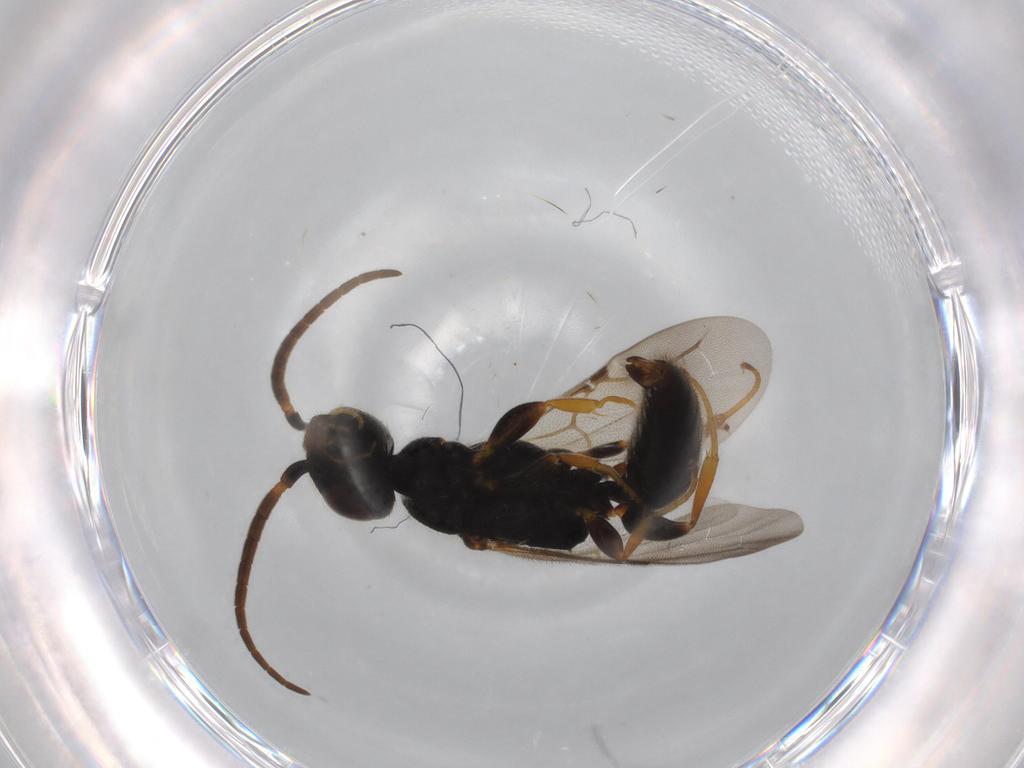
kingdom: Animalia
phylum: Arthropoda
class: Insecta
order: Hymenoptera
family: Bethylidae
